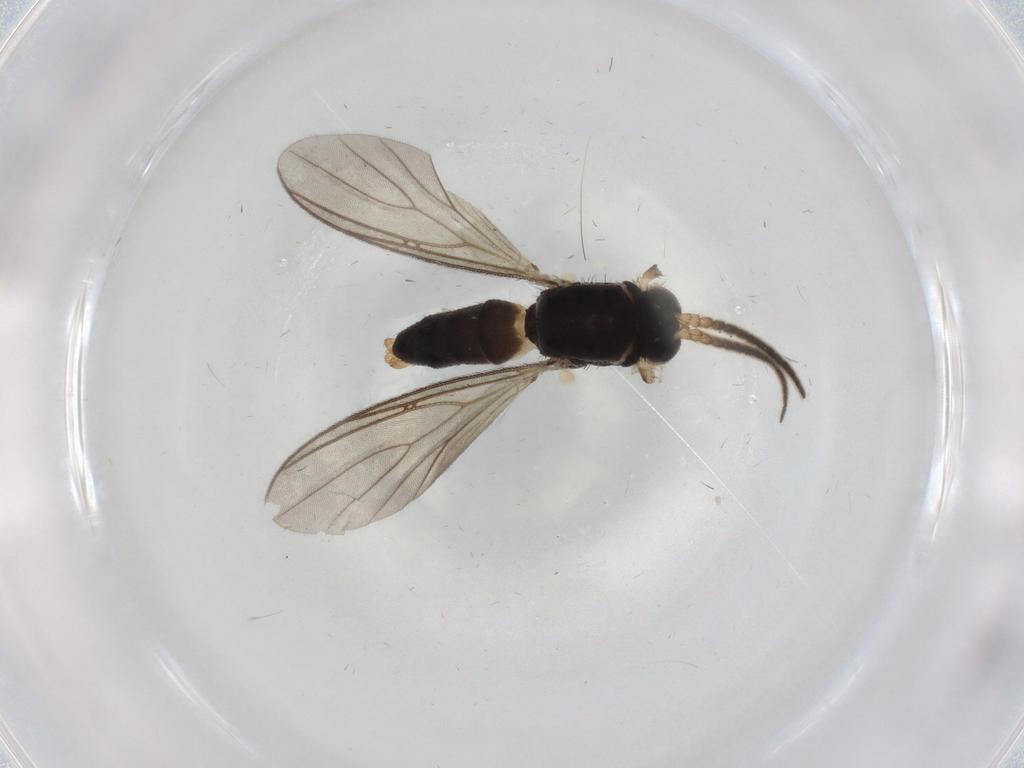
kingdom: Animalia
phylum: Arthropoda
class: Insecta
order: Diptera
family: Mycetophilidae
